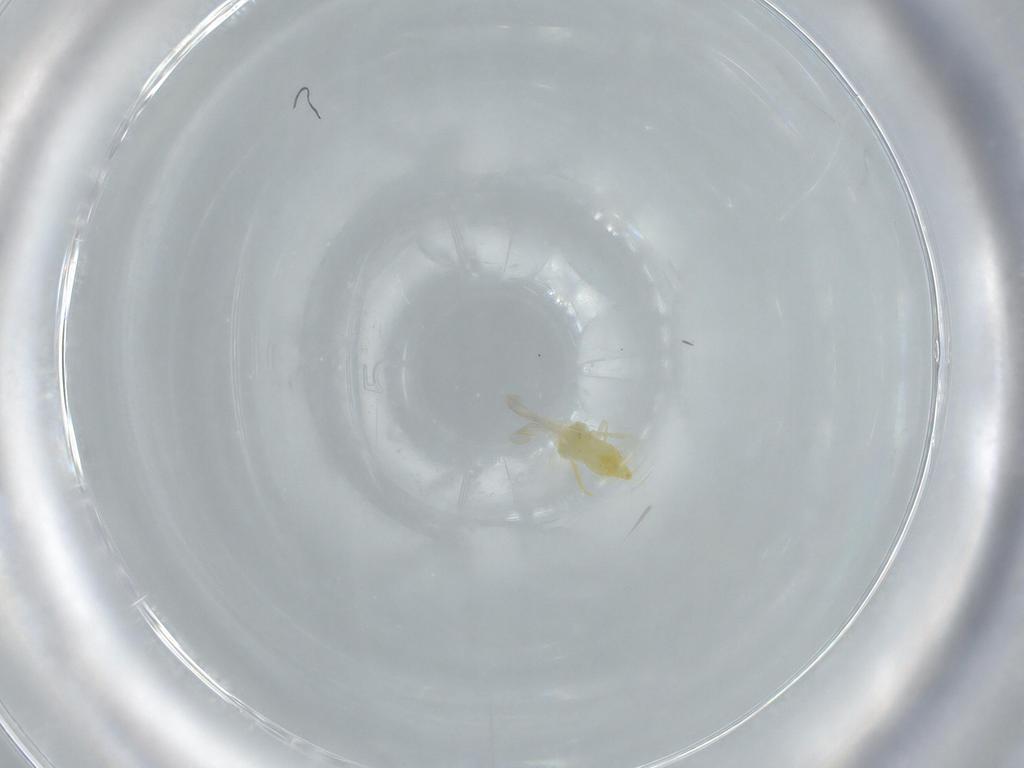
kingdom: Animalia
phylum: Arthropoda
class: Insecta
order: Hemiptera
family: Aleyrodidae
